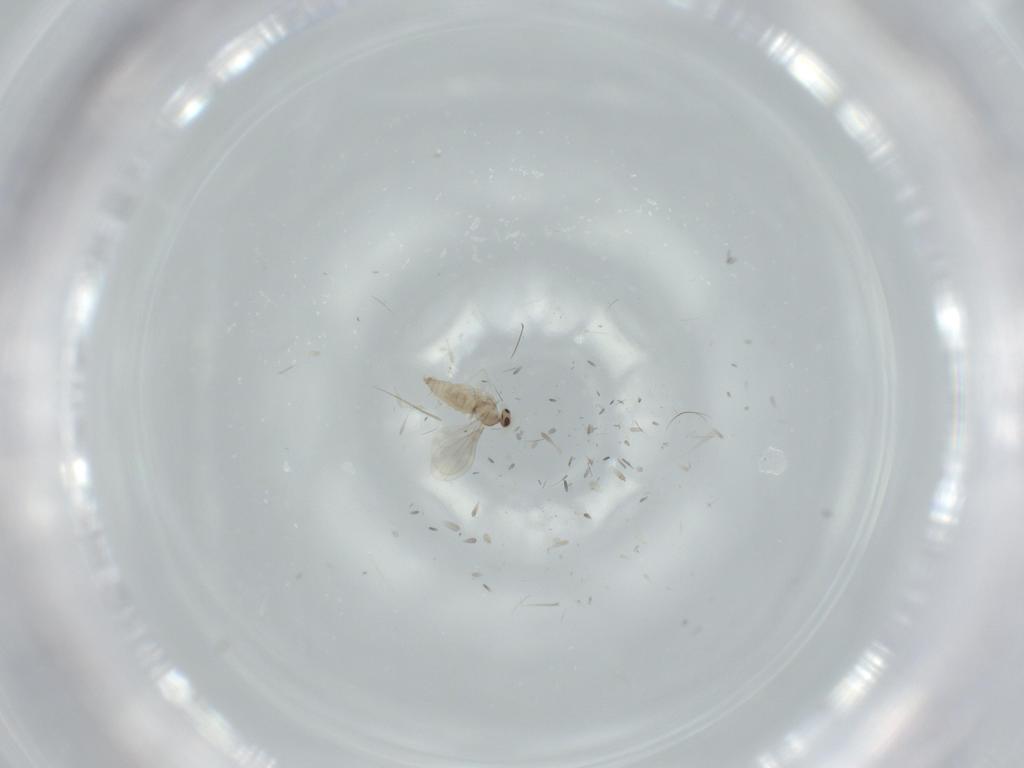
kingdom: Animalia
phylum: Arthropoda
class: Insecta
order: Diptera
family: Cecidomyiidae
